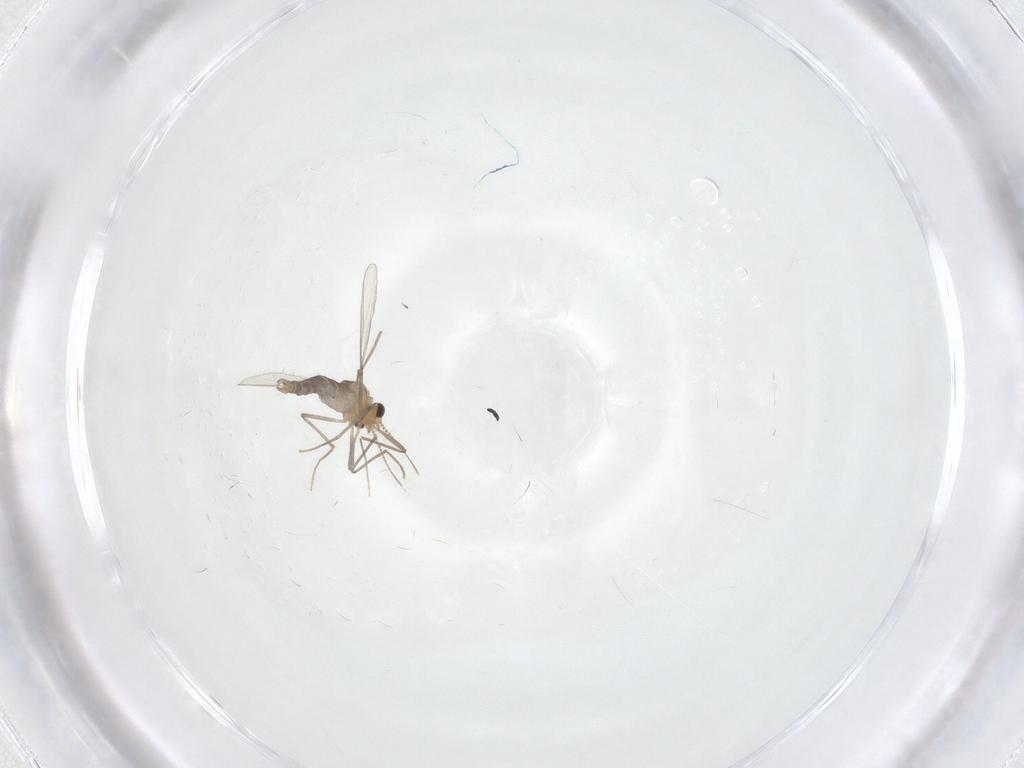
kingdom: Animalia
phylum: Arthropoda
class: Insecta
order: Diptera
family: Chironomidae
